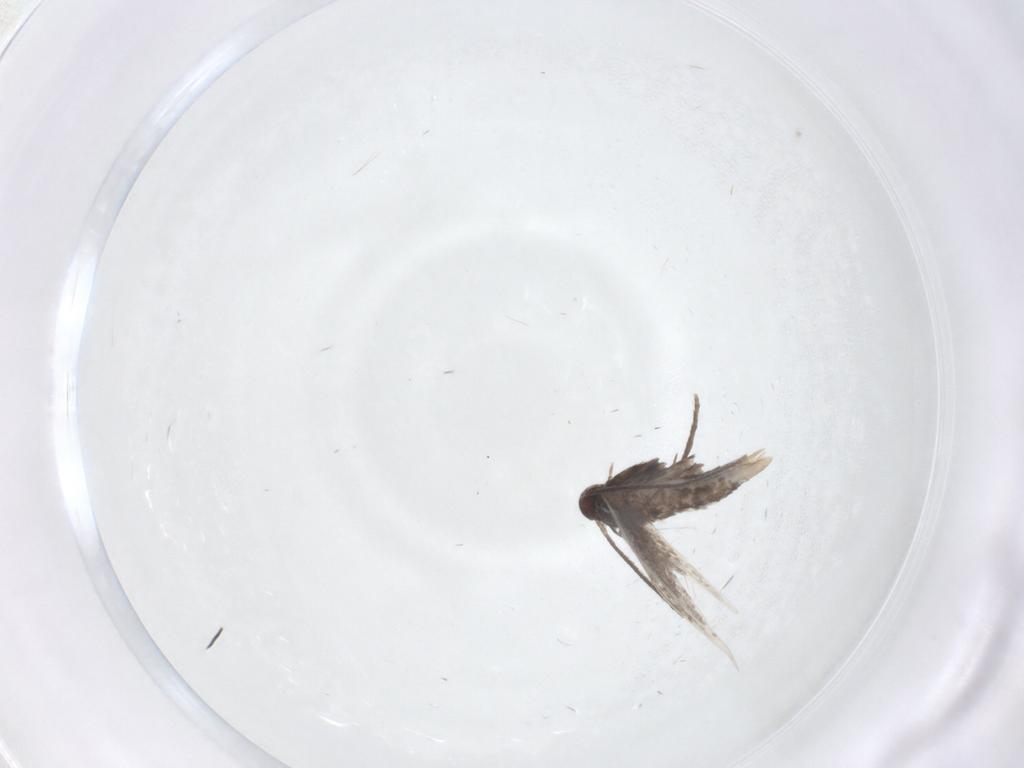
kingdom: Animalia
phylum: Arthropoda
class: Insecta
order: Lepidoptera
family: Gracillariidae
